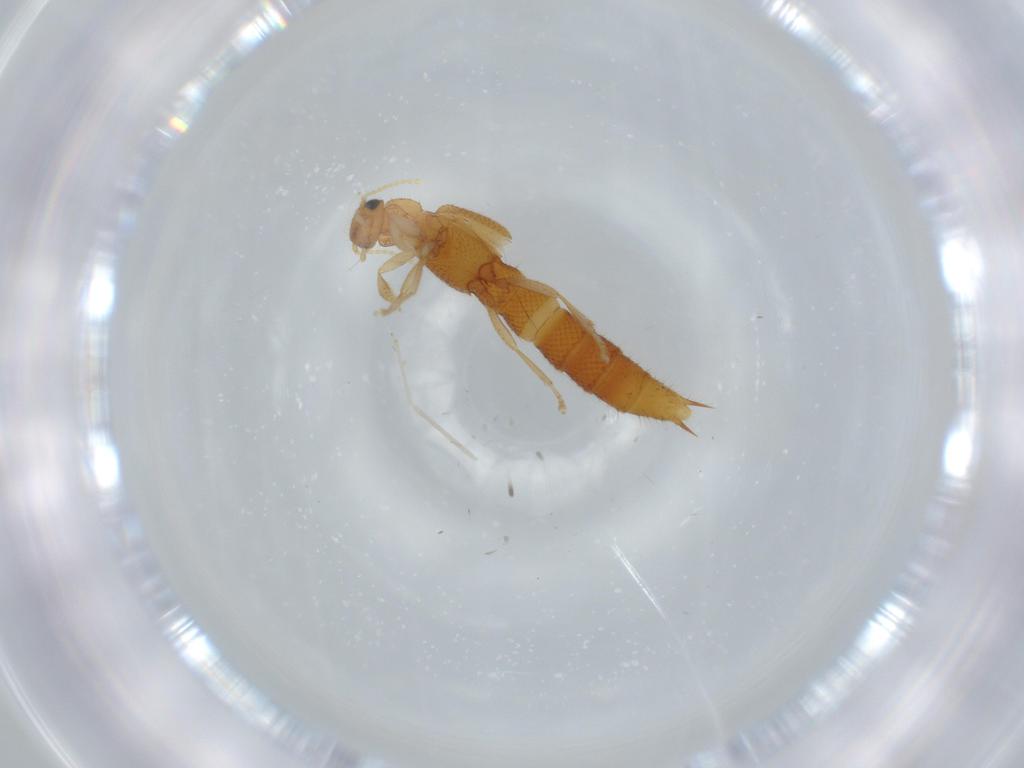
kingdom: Animalia
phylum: Arthropoda
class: Insecta
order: Coleoptera
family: Staphylinidae
